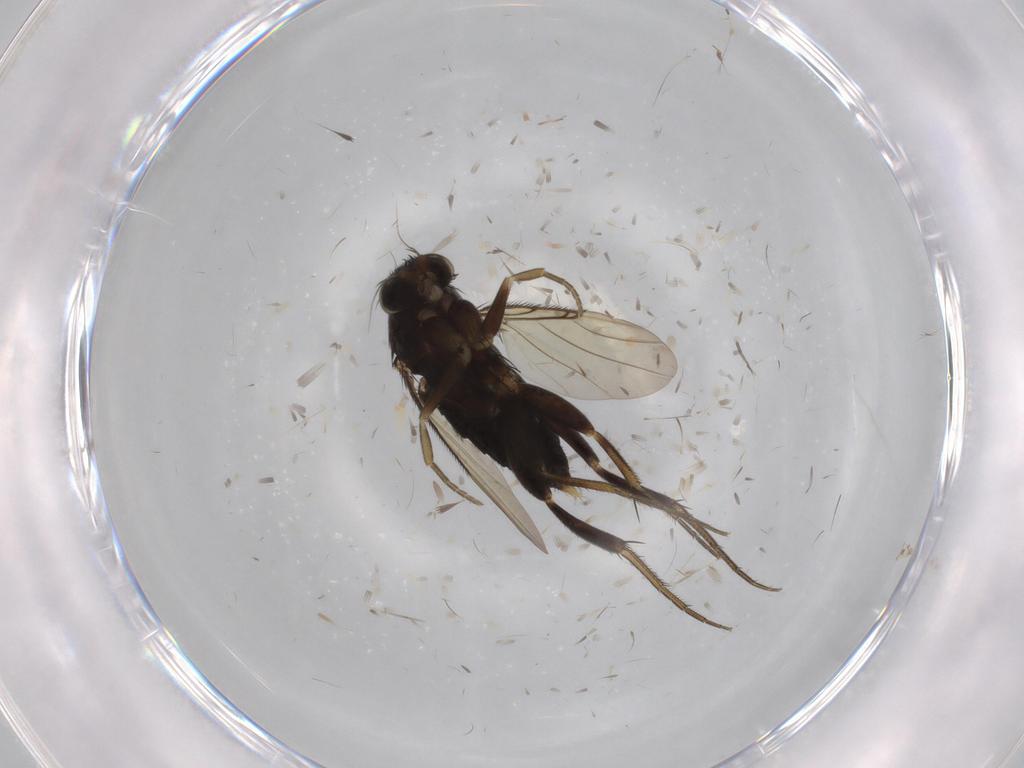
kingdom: Animalia
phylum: Arthropoda
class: Insecta
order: Diptera
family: Phoridae
